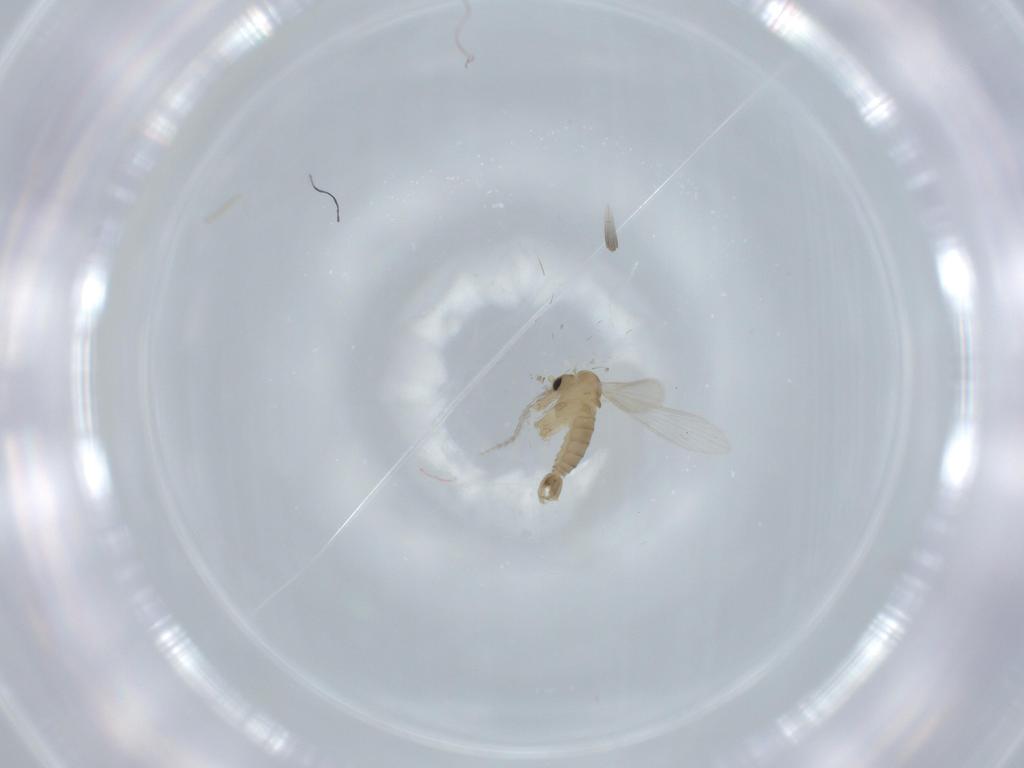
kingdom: Animalia
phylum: Arthropoda
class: Insecta
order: Diptera
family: Psychodidae
